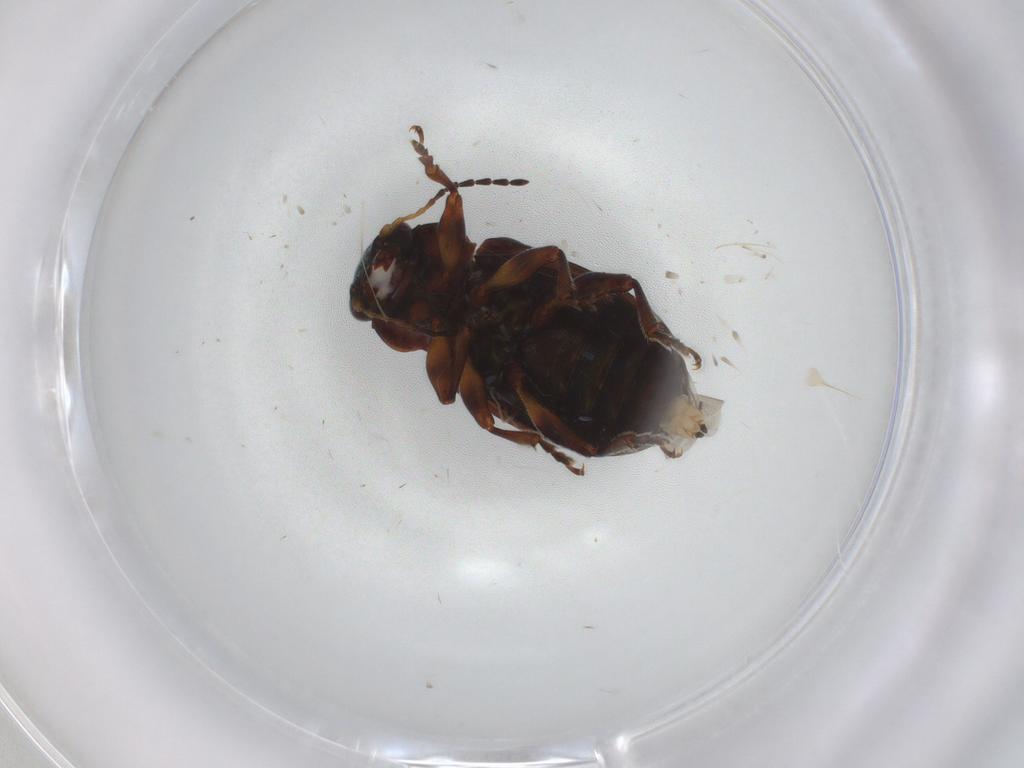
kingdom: Animalia
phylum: Arthropoda
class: Insecta
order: Coleoptera
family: Chrysomelidae
